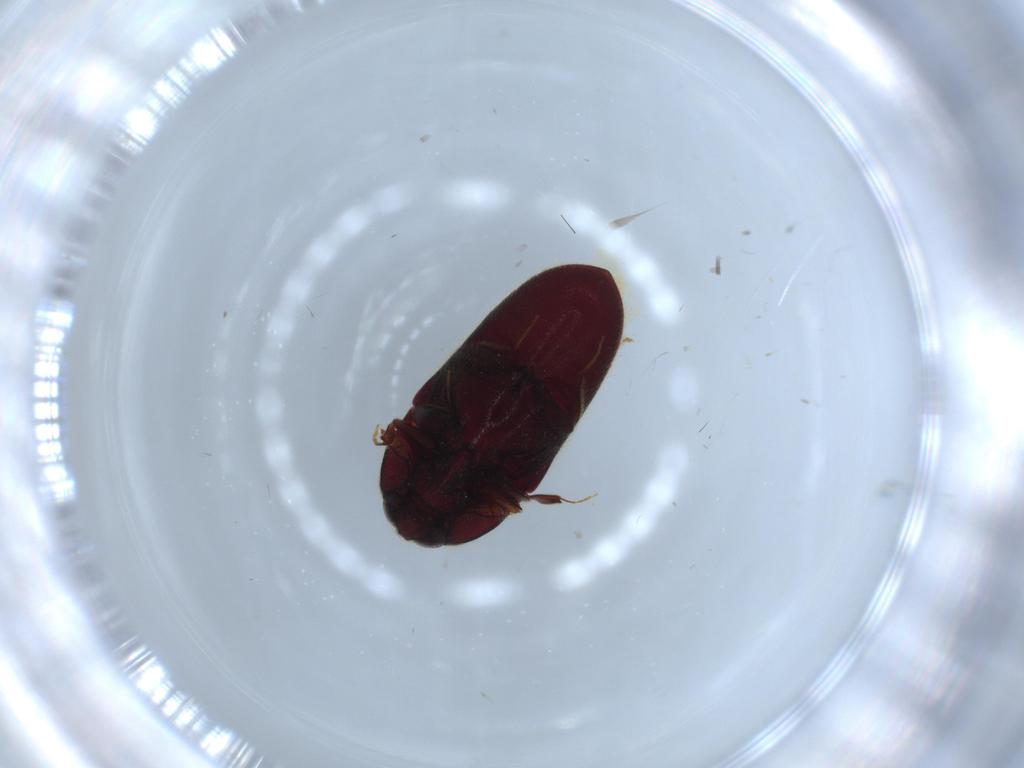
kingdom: Animalia
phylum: Arthropoda
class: Insecta
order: Coleoptera
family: Throscidae
